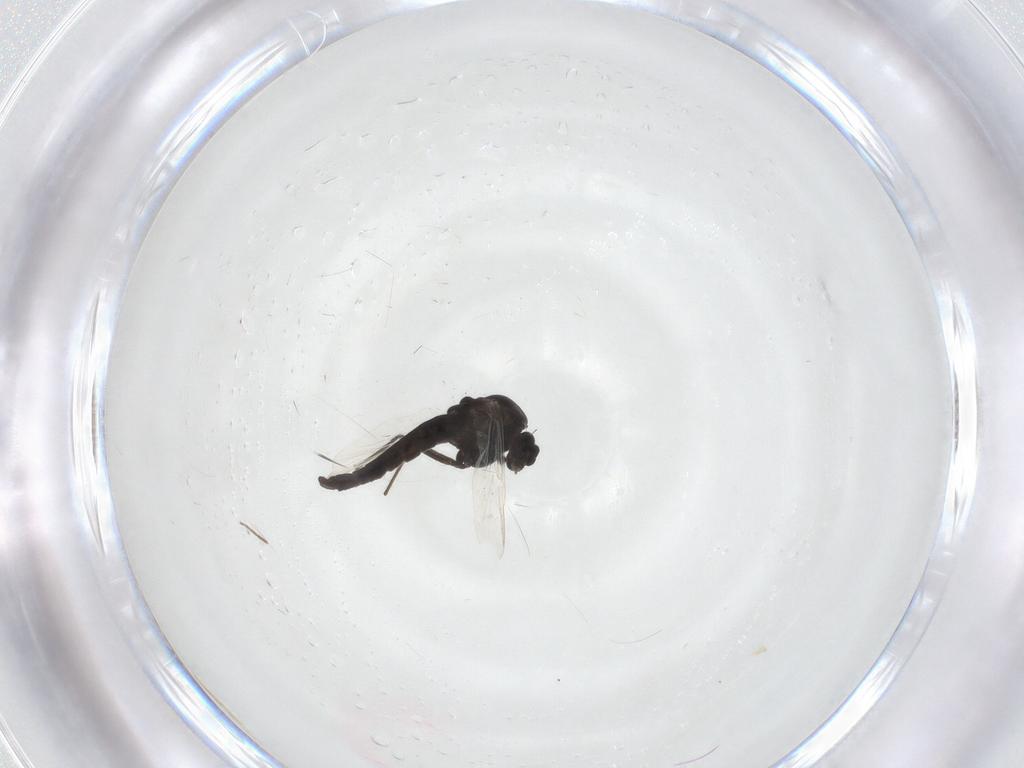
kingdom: Animalia
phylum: Arthropoda
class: Insecta
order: Diptera
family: Chironomidae
